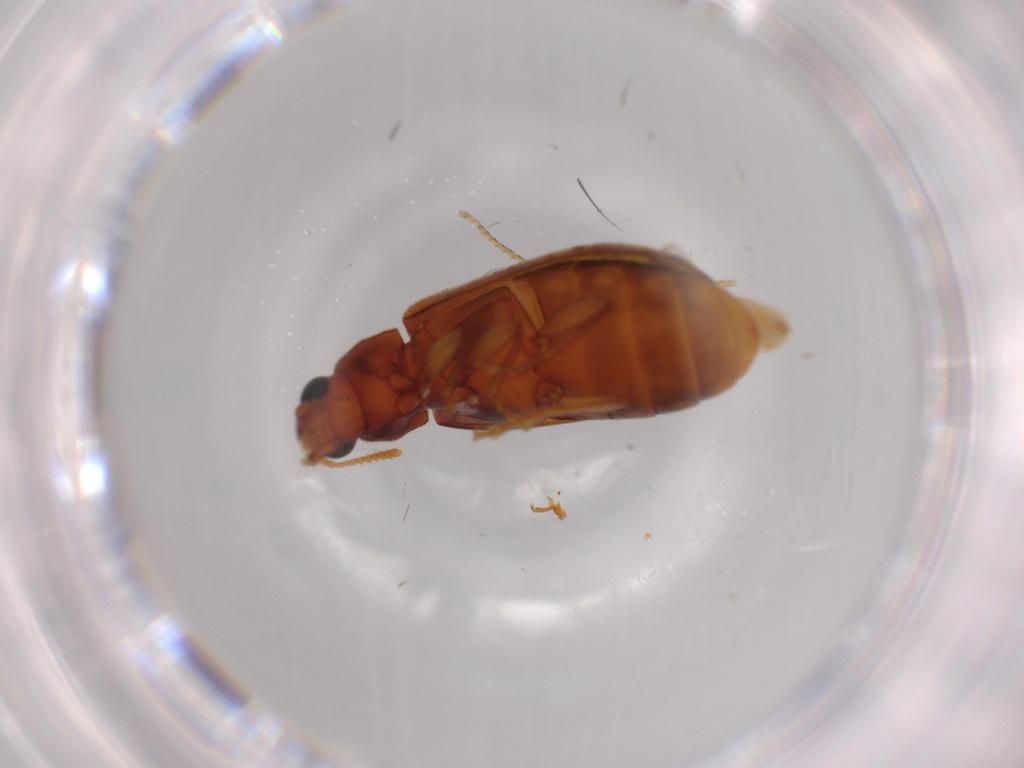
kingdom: Animalia
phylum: Arthropoda
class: Insecta
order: Coleoptera
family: Mycteridae
